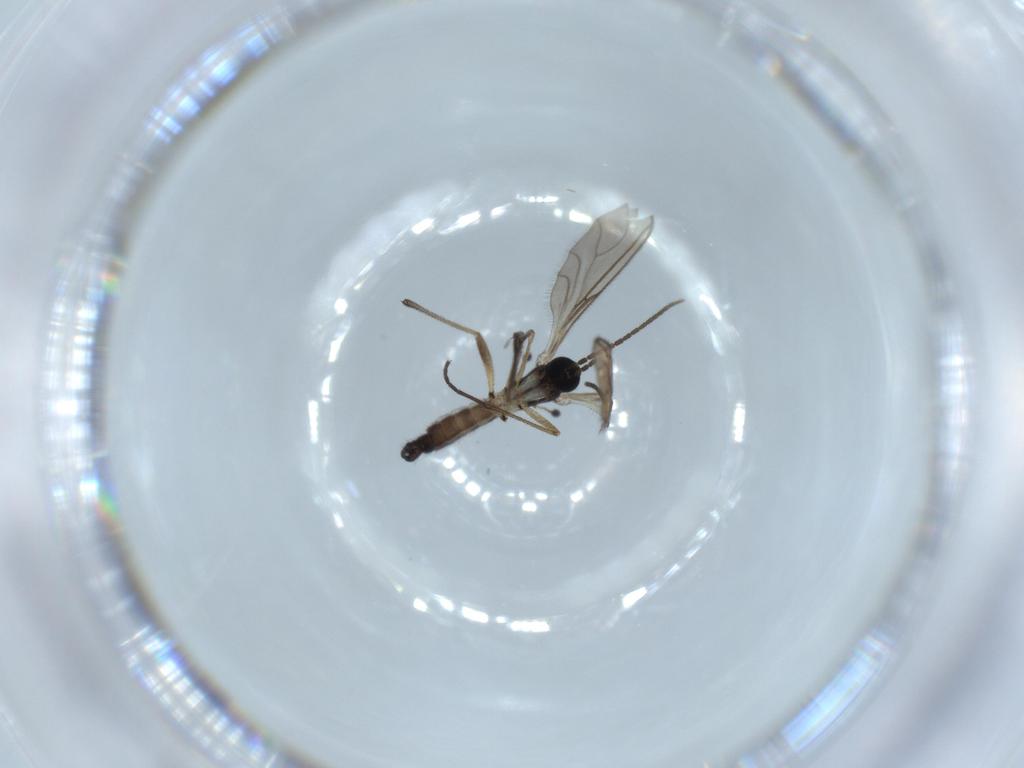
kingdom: Animalia
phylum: Arthropoda
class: Insecta
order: Diptera
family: Sciaridae
